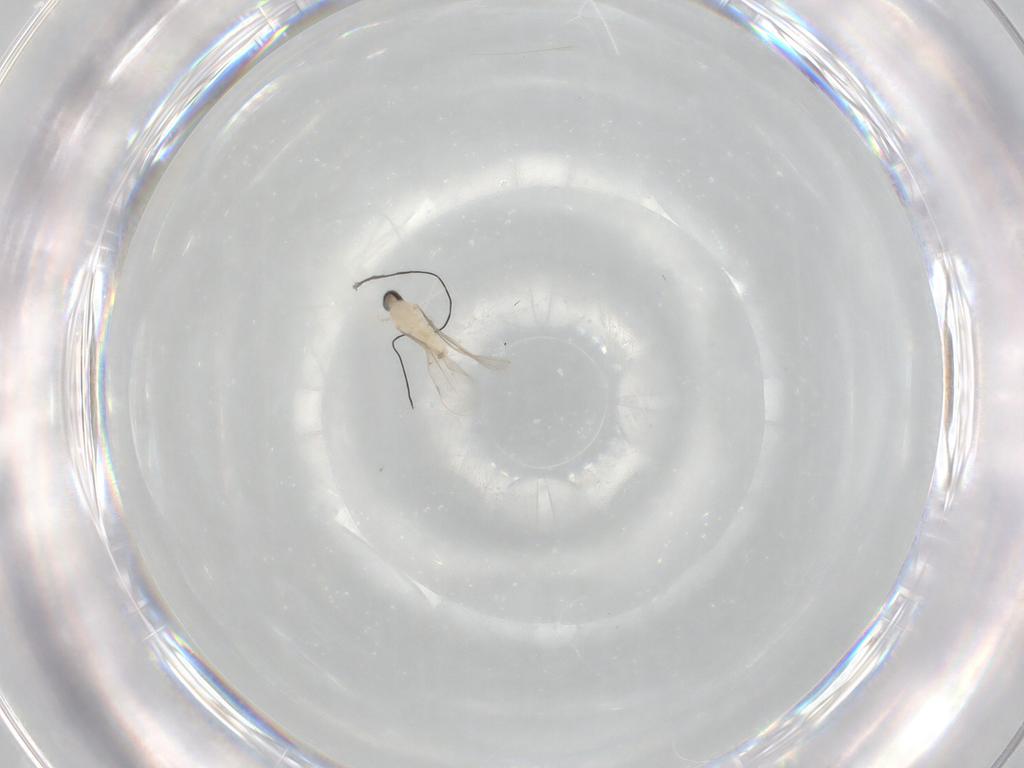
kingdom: Animalia
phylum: Arthropoda
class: Insecta
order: Diptera
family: Cecidomyiidae
